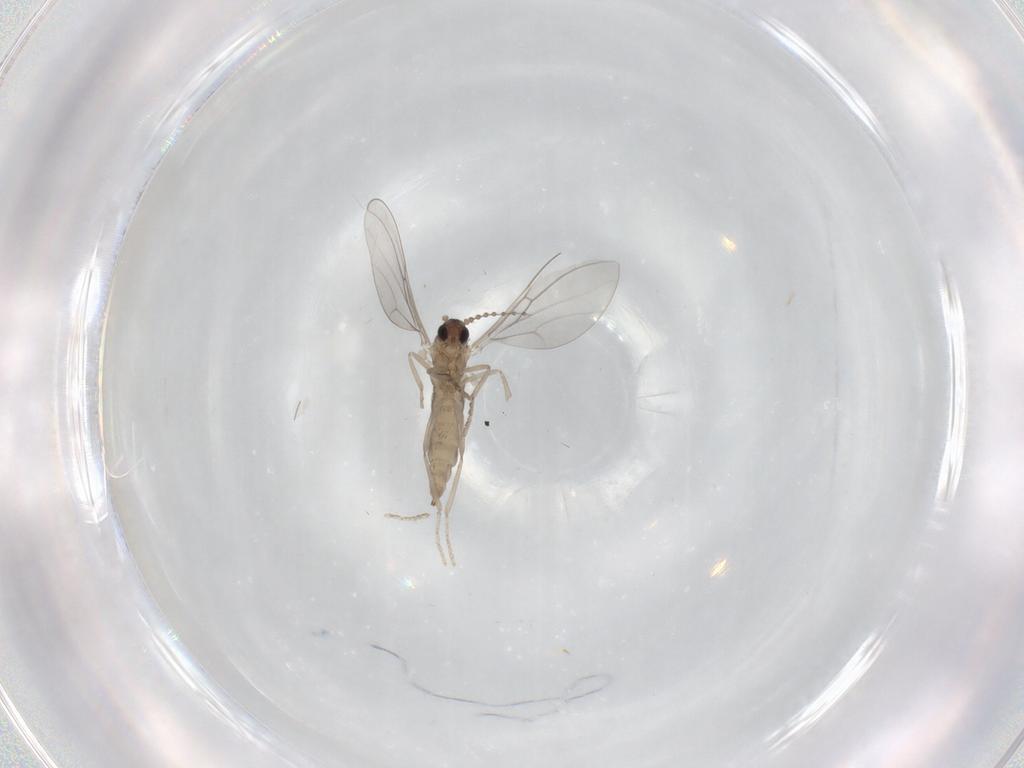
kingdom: Animalia
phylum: Arthropoda
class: Insecta
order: Diptera
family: Cecidomyiidae
